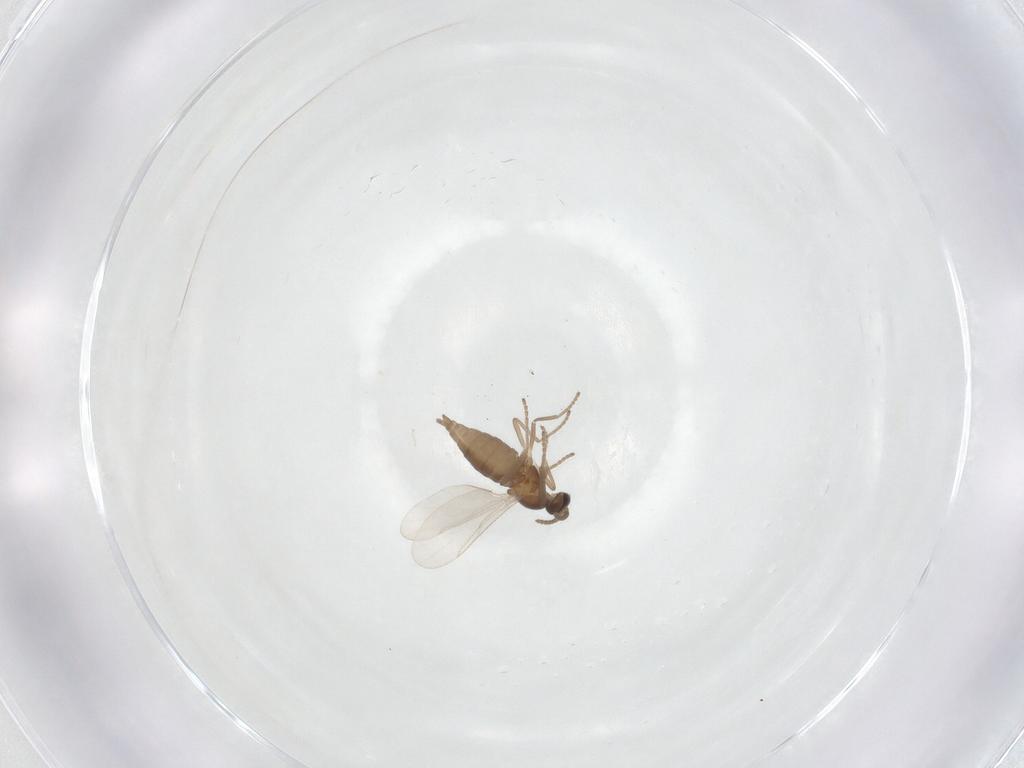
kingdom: Animalia
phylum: Arthropoda
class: Insecta
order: Diptera
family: Cecidomyiidae
